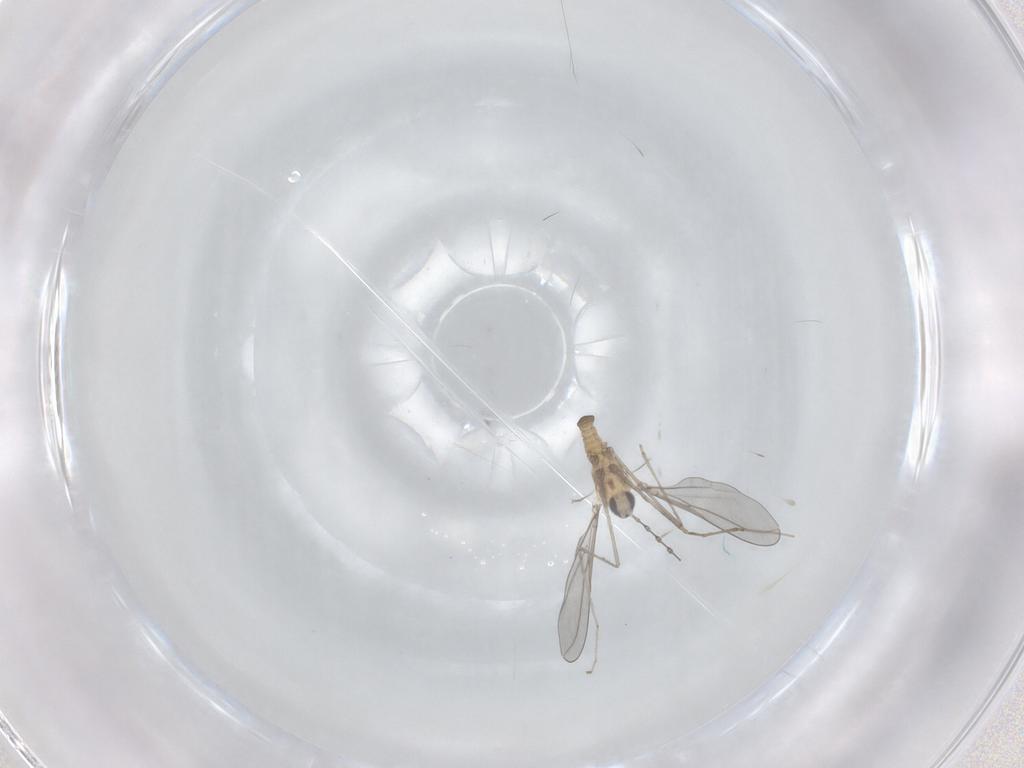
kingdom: Animalia
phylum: Arthropoda
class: Insecta
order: Diptera
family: Cecidomyiidae
